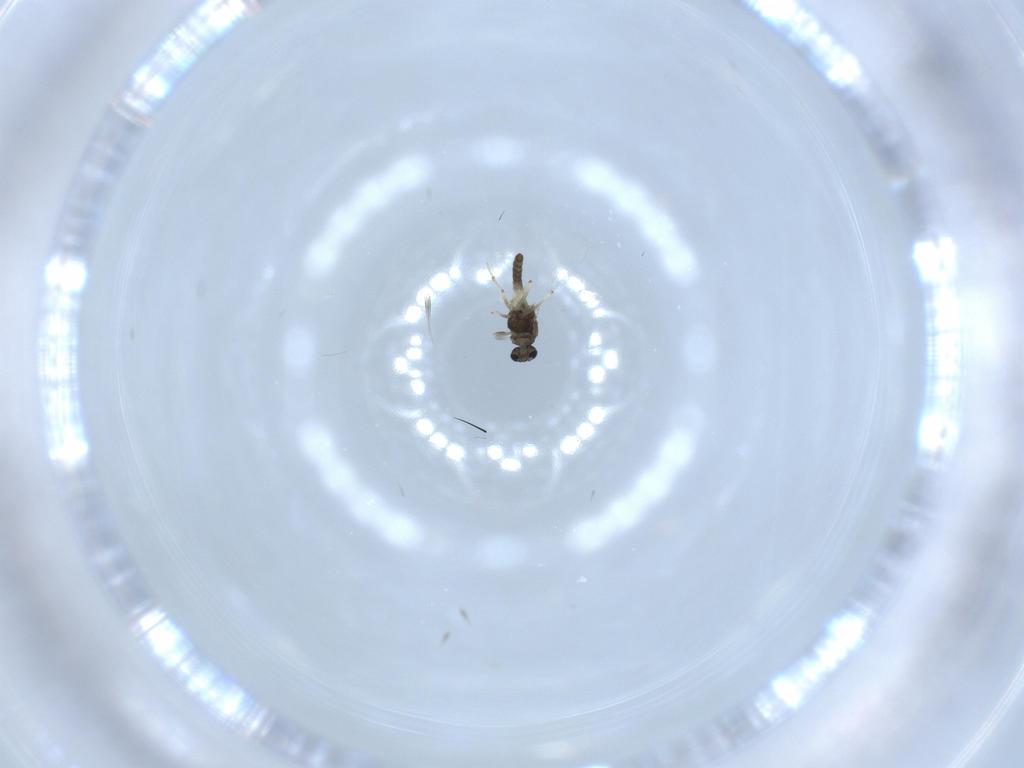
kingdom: Animalia
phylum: Arthropoda
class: Insecta
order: Diptera
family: Chironomidae
